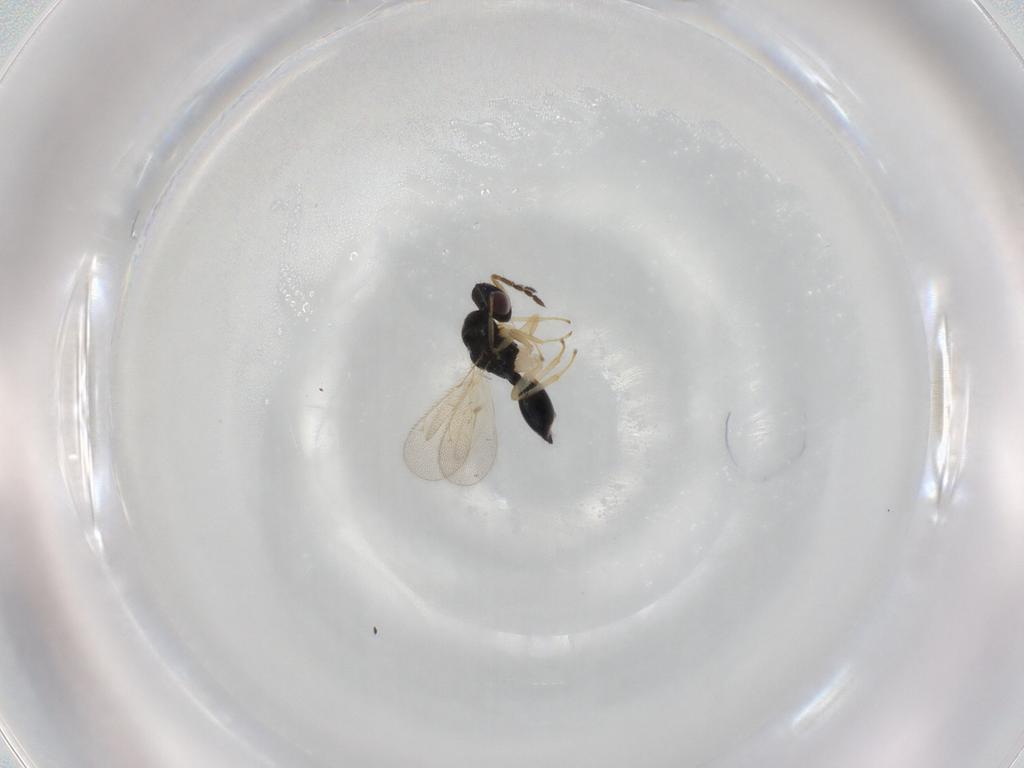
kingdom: Animalia
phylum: Arthropoda
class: Insecta
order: Hymenoptera
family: Eulophidae
